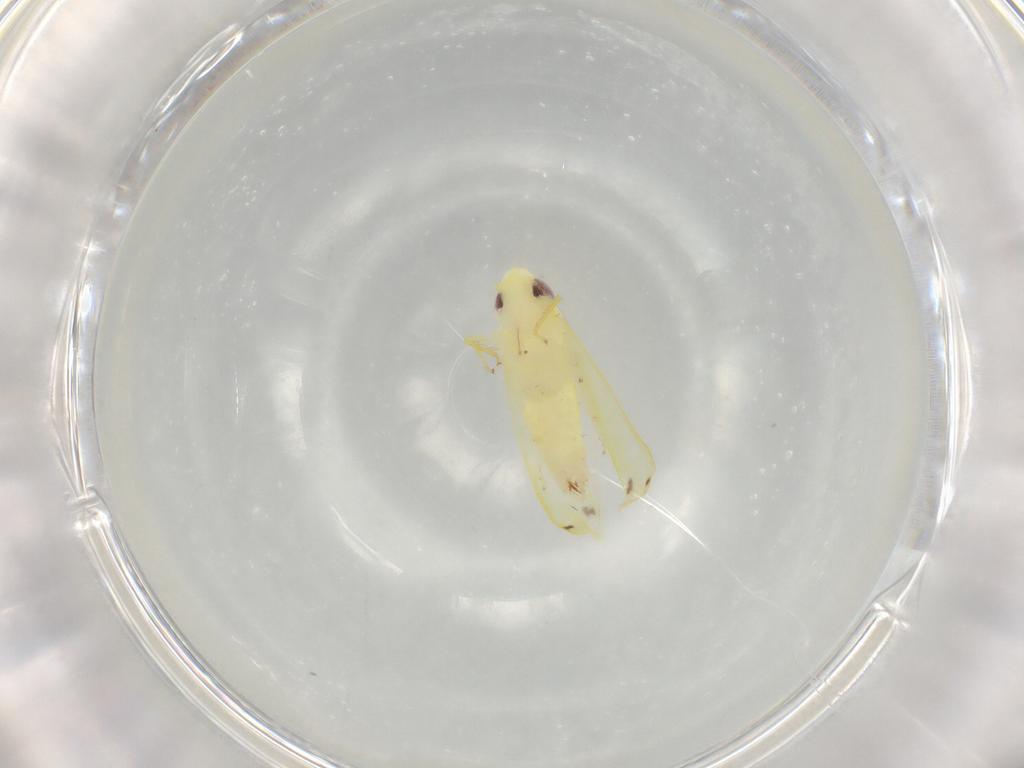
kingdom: Animalia
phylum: Arthropoda
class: Insecta
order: Hemiptera
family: Cicadellidae
